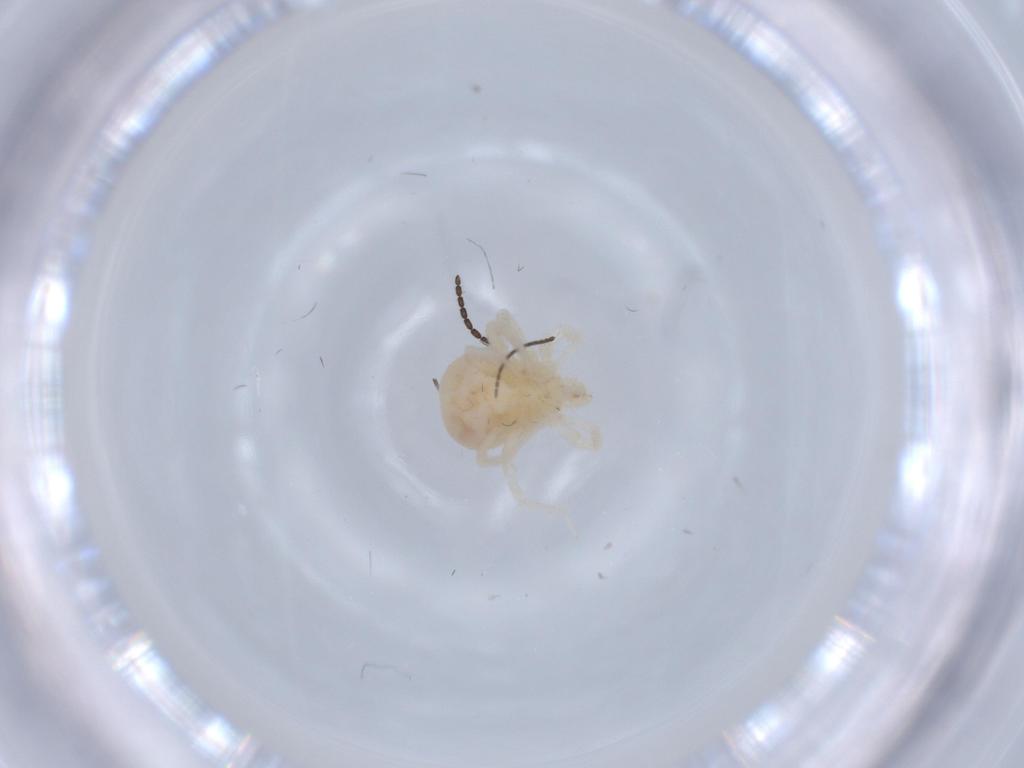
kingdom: Animalia
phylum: Arthropoda
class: Arachnida
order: Trombidiformes
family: Anystidae
